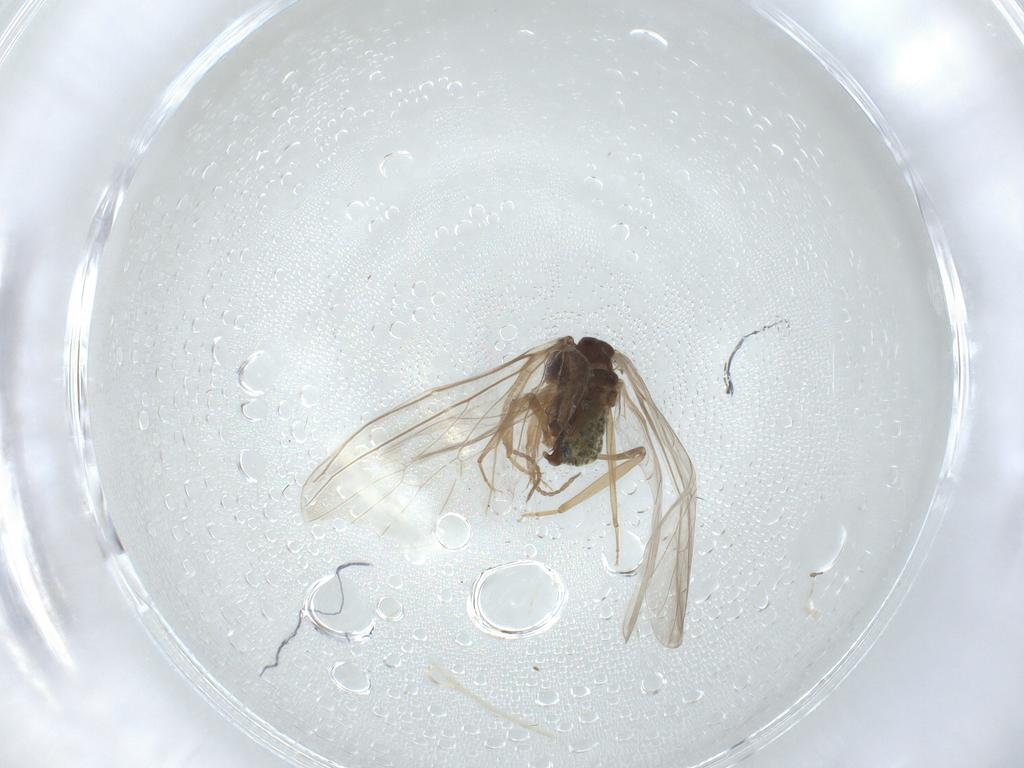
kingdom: Animalia
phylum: Arthropoda
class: Insecta
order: Neuroptera
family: Coniopterygidae
